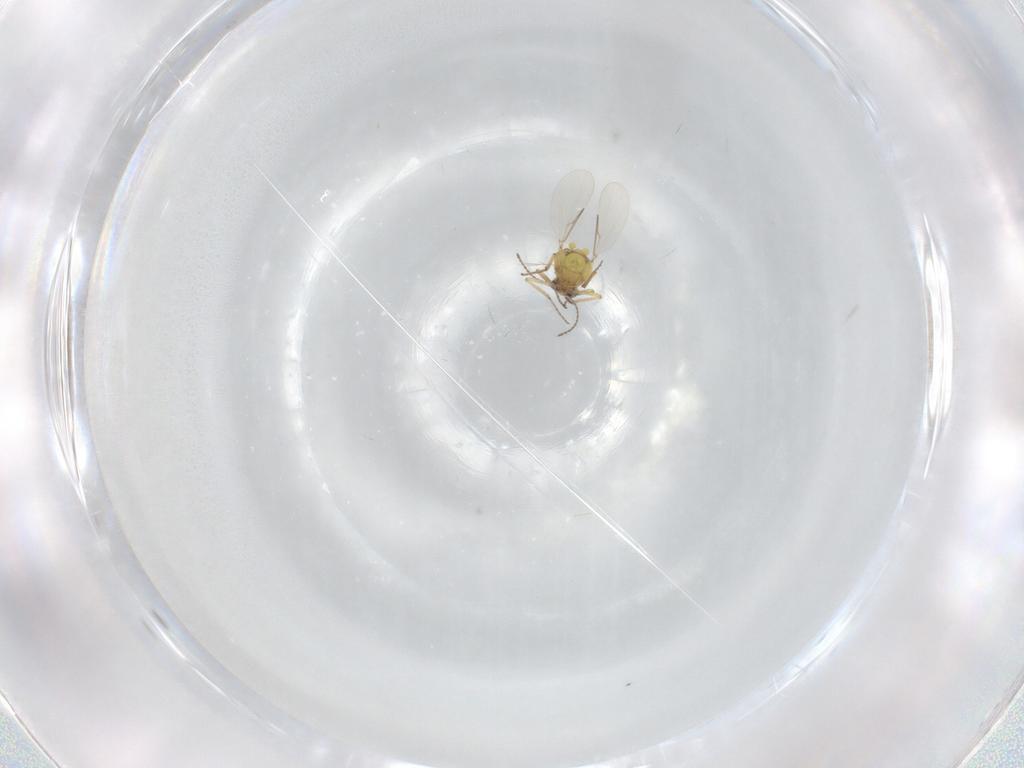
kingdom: Animalia
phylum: Arthropoda
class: Insecta
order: Diptera
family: Ceratopogonidae
